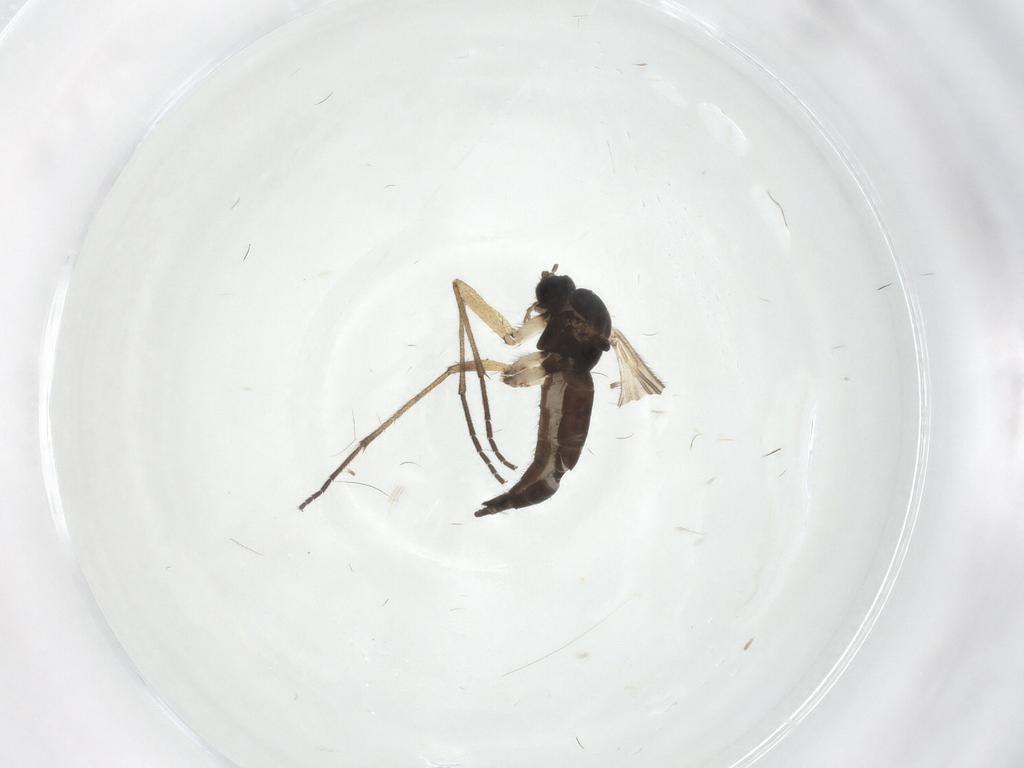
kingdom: Animalia
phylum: Arthropoda
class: Insecta
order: Diptera
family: Sciaridae
